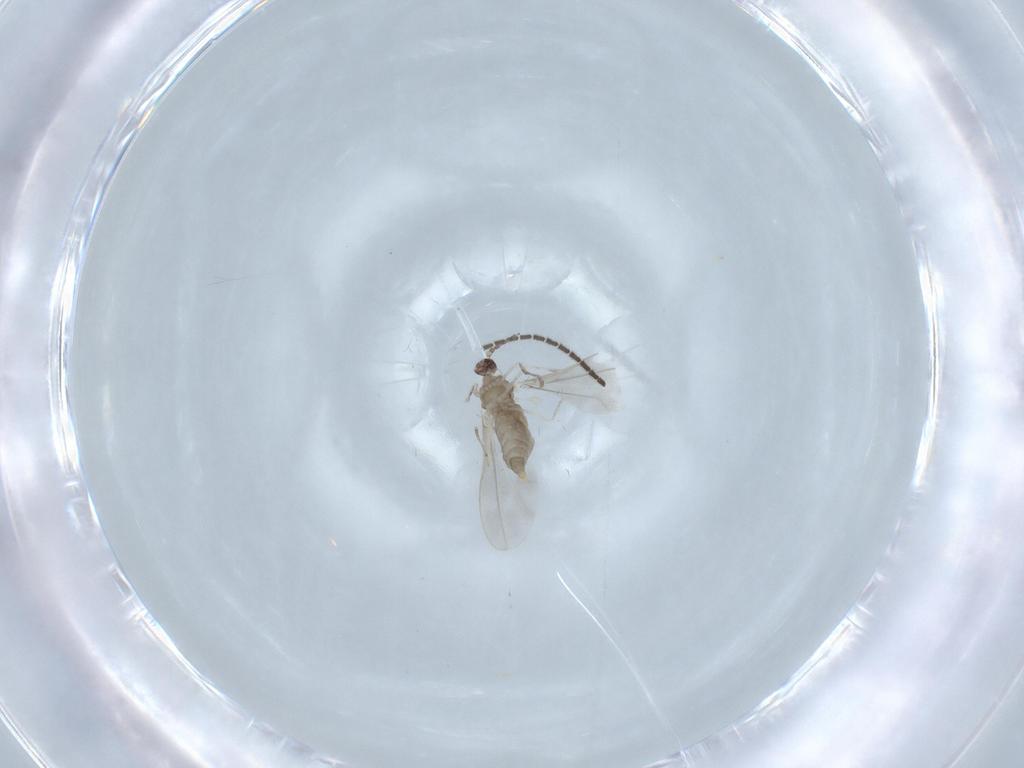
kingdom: Animalia
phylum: Arthropoda
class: Insecta
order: Diptera
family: Cecidomyiidae
